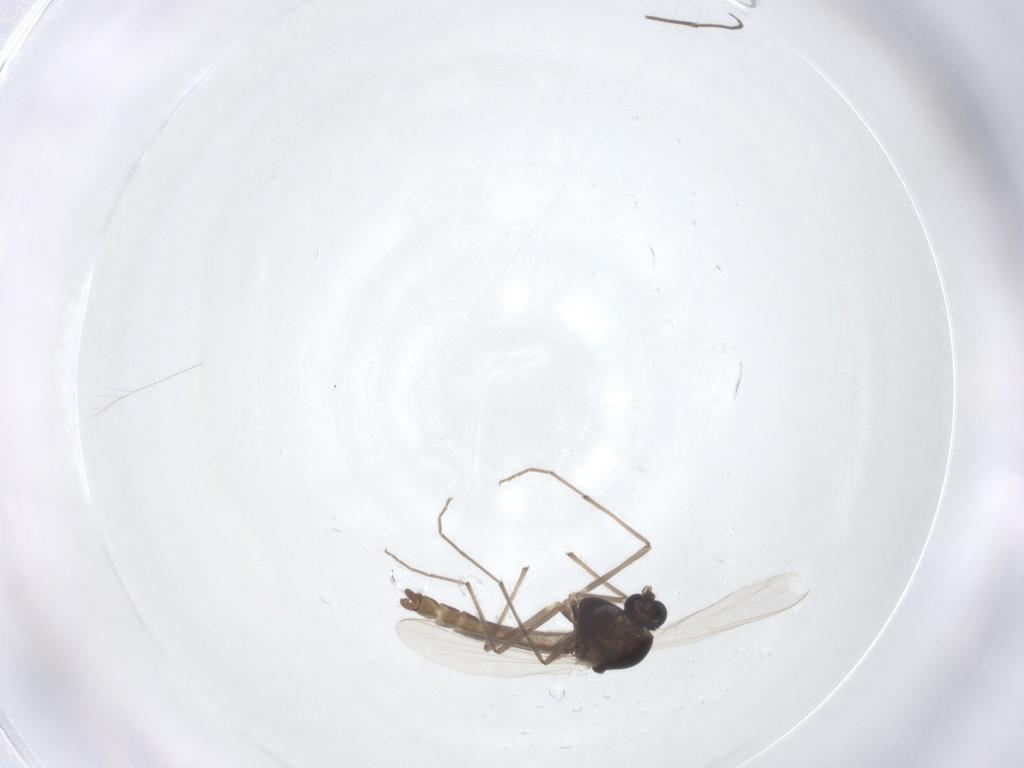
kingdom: Animalia
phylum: Arthropoda
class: Insecta
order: Diptera
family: Chironomidae
